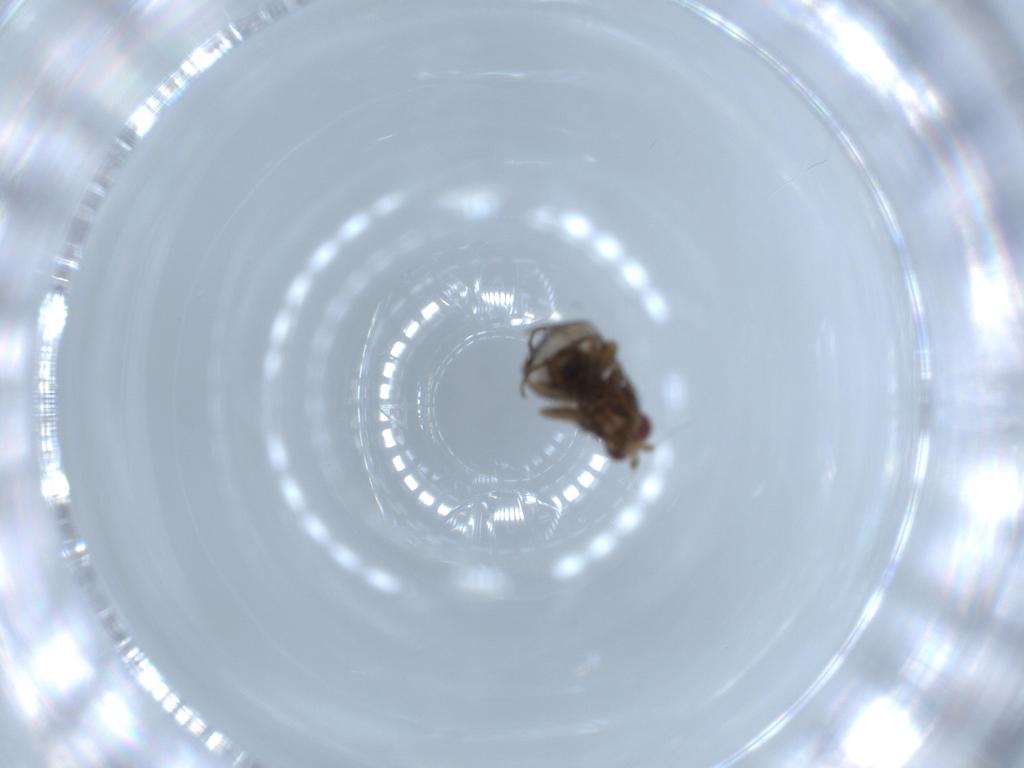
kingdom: Animalia
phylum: Arthropoda
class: Insecta
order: Diptera
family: Sphaeroceridae
